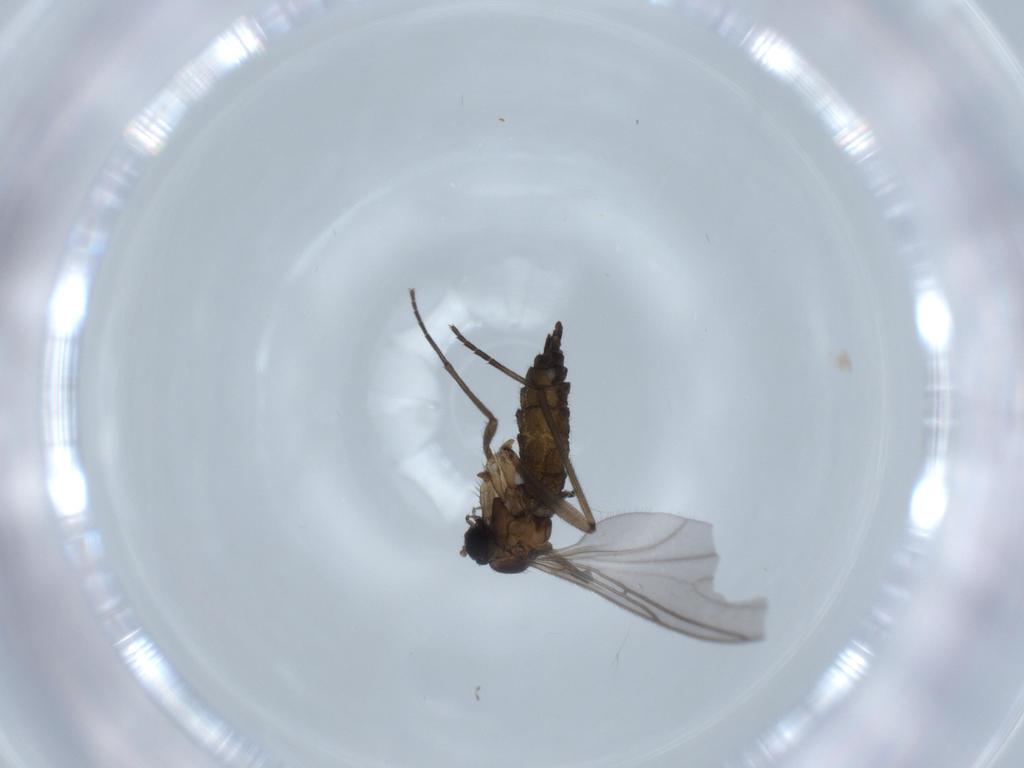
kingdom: Animalia
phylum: Arthropoda
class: Insecta
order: Diptera
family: Sciaridae
